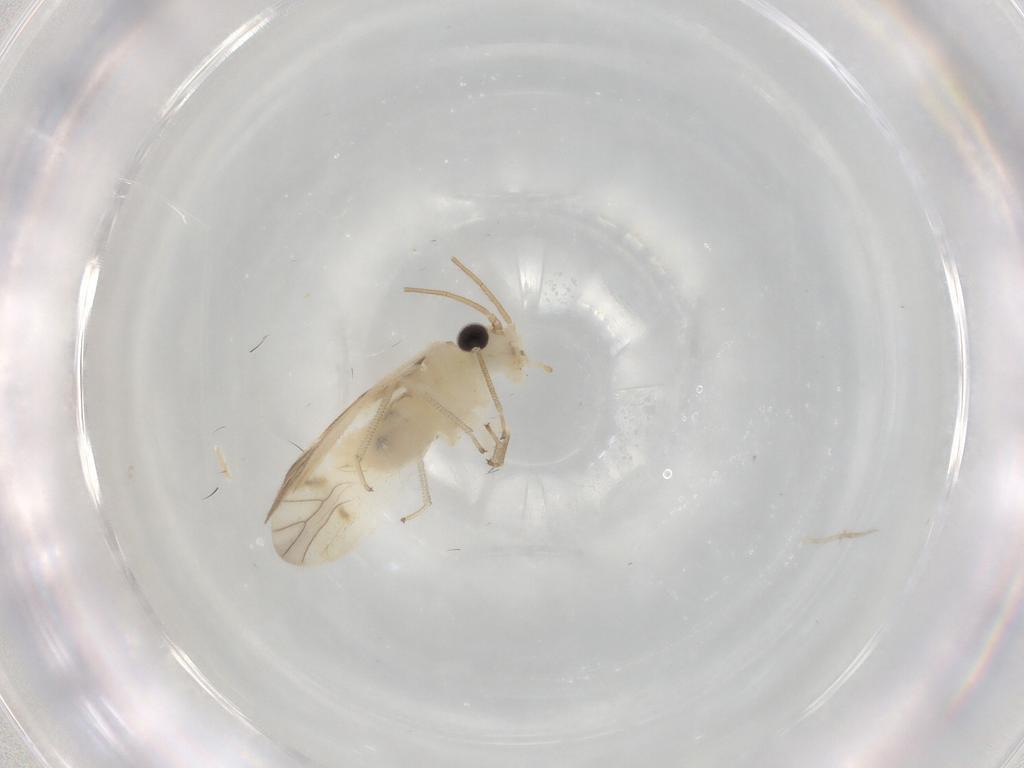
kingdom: Animalia
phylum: Arthropoda
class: Insecta
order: Psocodea
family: Caeciliusidae
